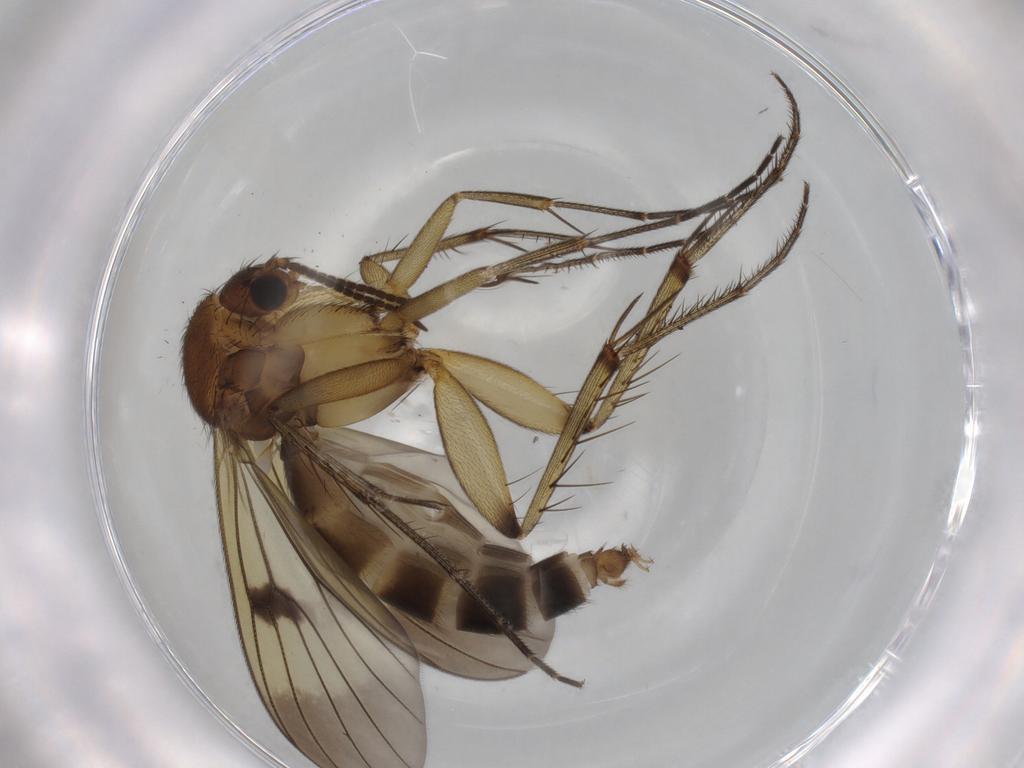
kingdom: Animalia
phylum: Arthropoda
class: Insecta
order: Diptera
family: Mycetophilidae
